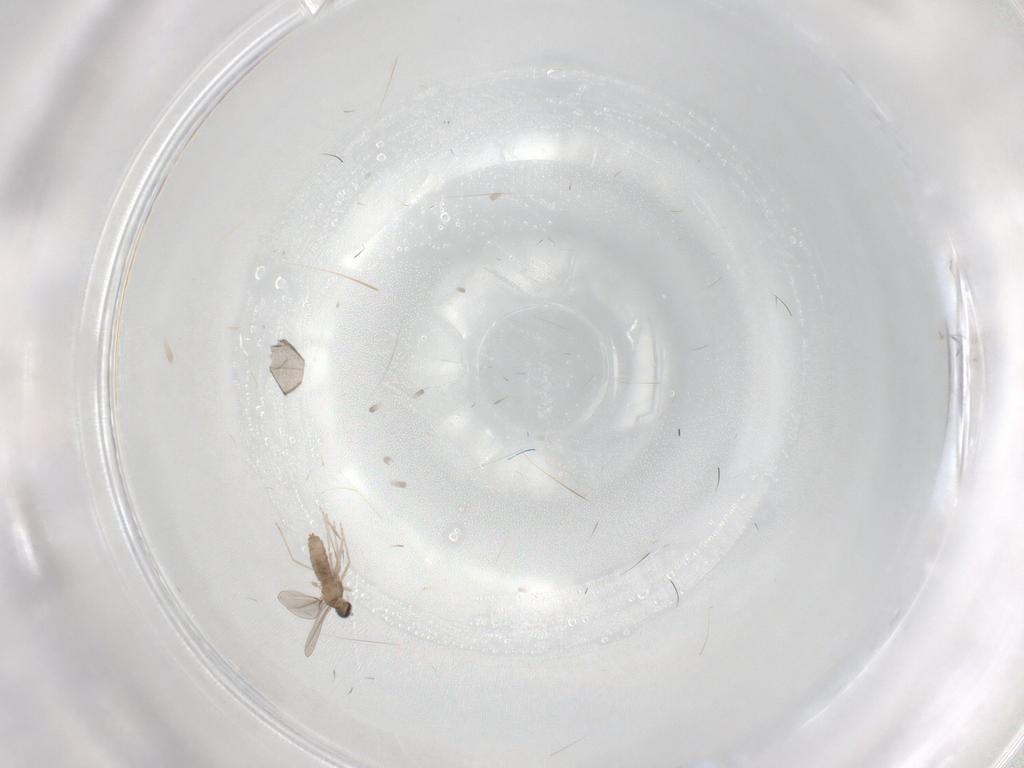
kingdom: Animalia
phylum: Arthropoda
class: Insecta
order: Diptera
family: Cecidomyiidae
